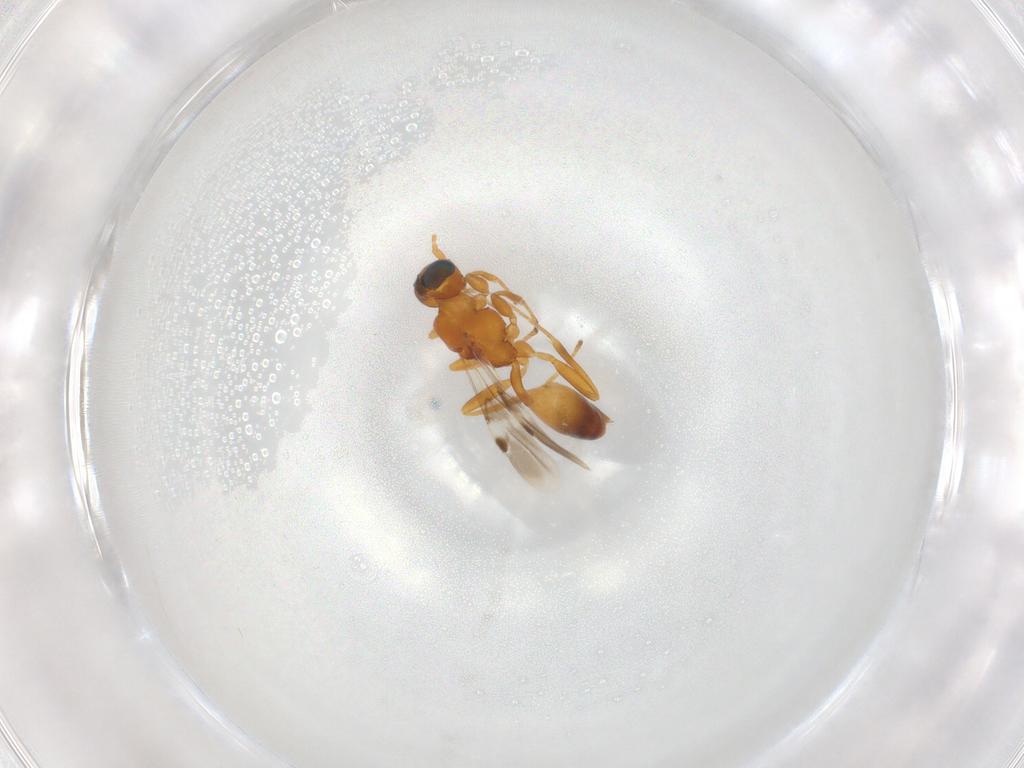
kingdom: Animalia
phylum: Arthropoda
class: Insecta
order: Hymenoptera
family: Braconidae
